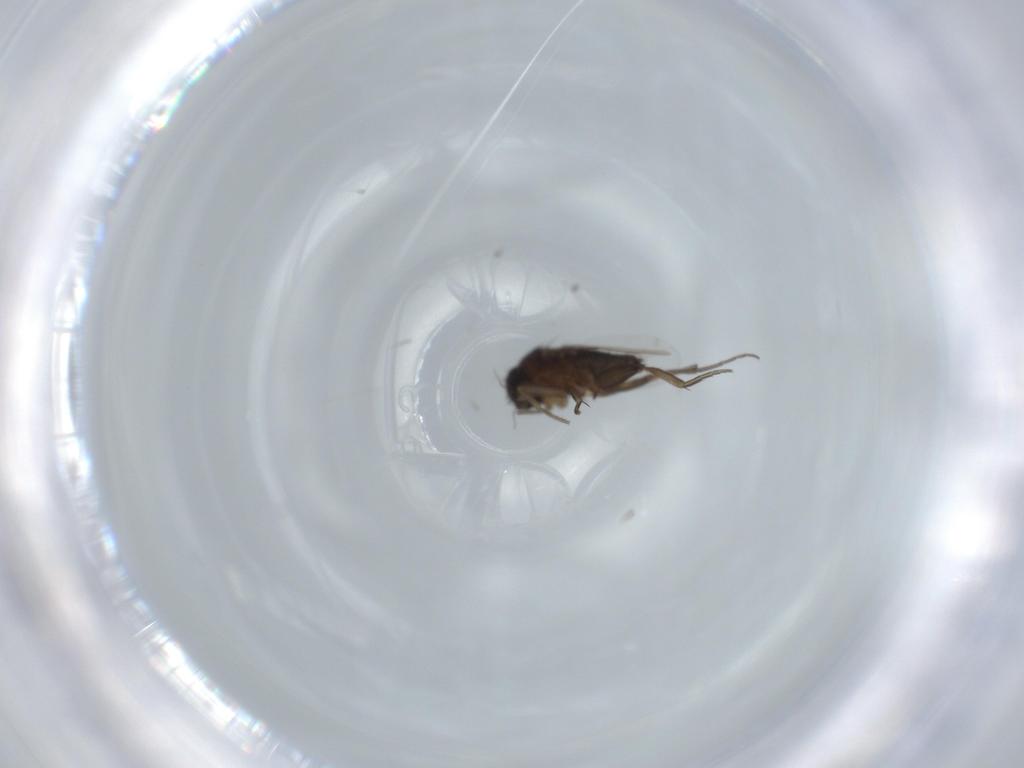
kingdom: Animalia
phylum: Arthropoda
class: Insecta
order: Diptera
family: Phoridae
